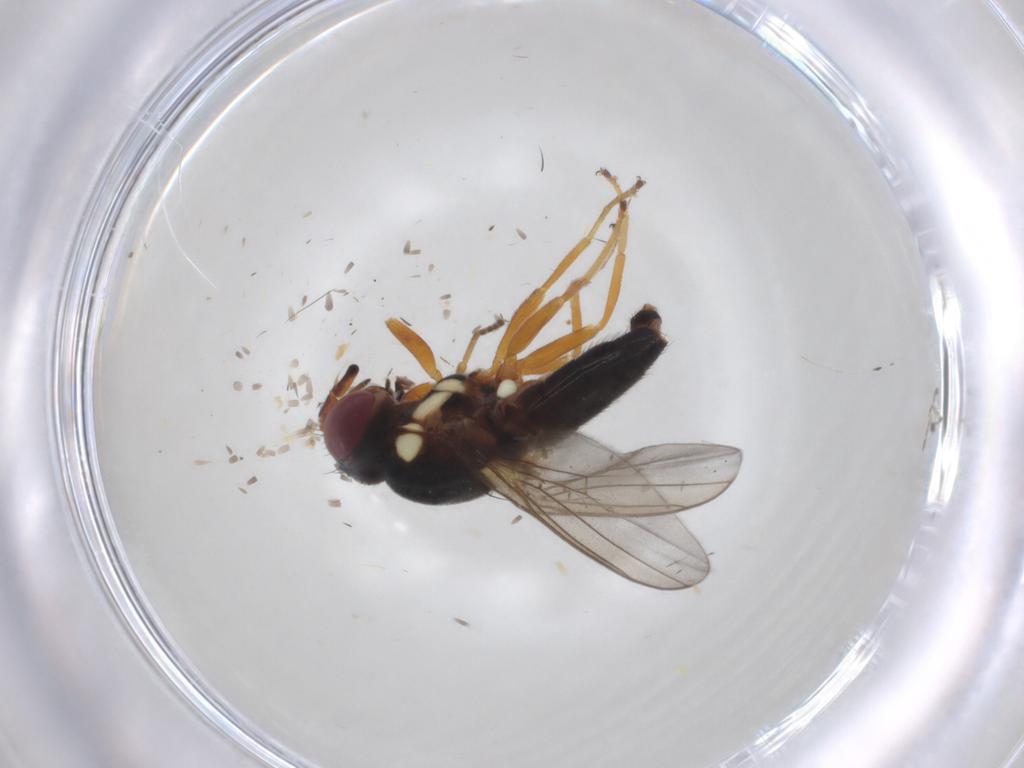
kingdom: Animalia
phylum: Arthropoda
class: Insecta
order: Diptera
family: Chloropidae
